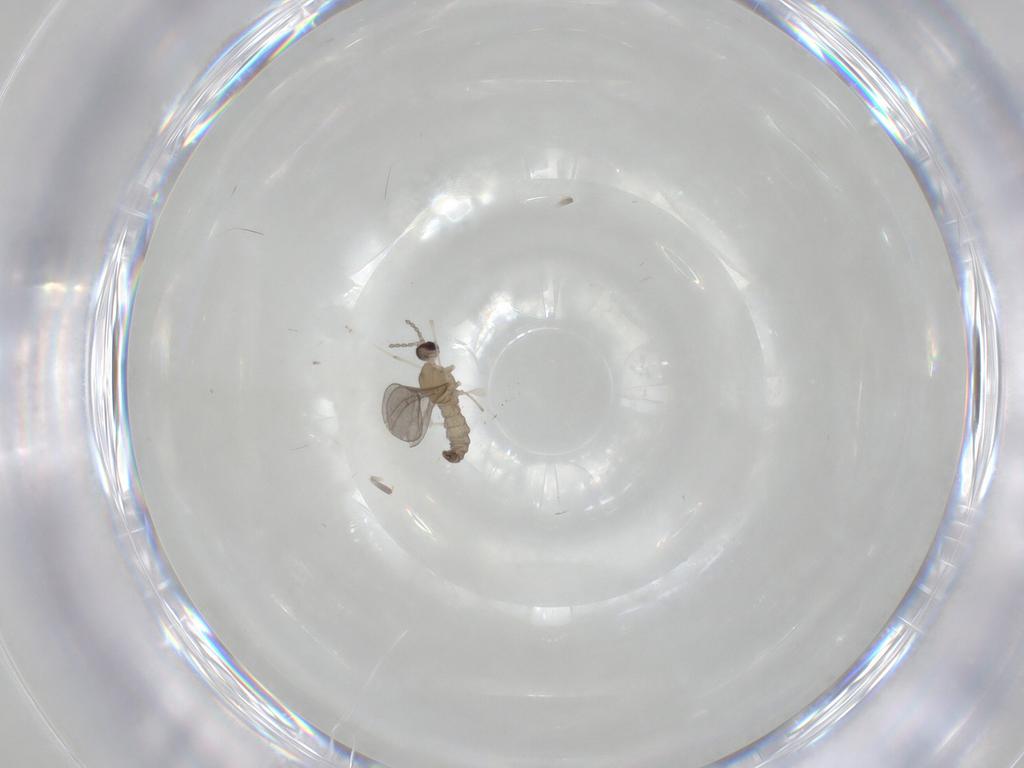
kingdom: Animalia
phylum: Arthropoda
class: Insecta
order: Diptera
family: Cecidomyiidae
